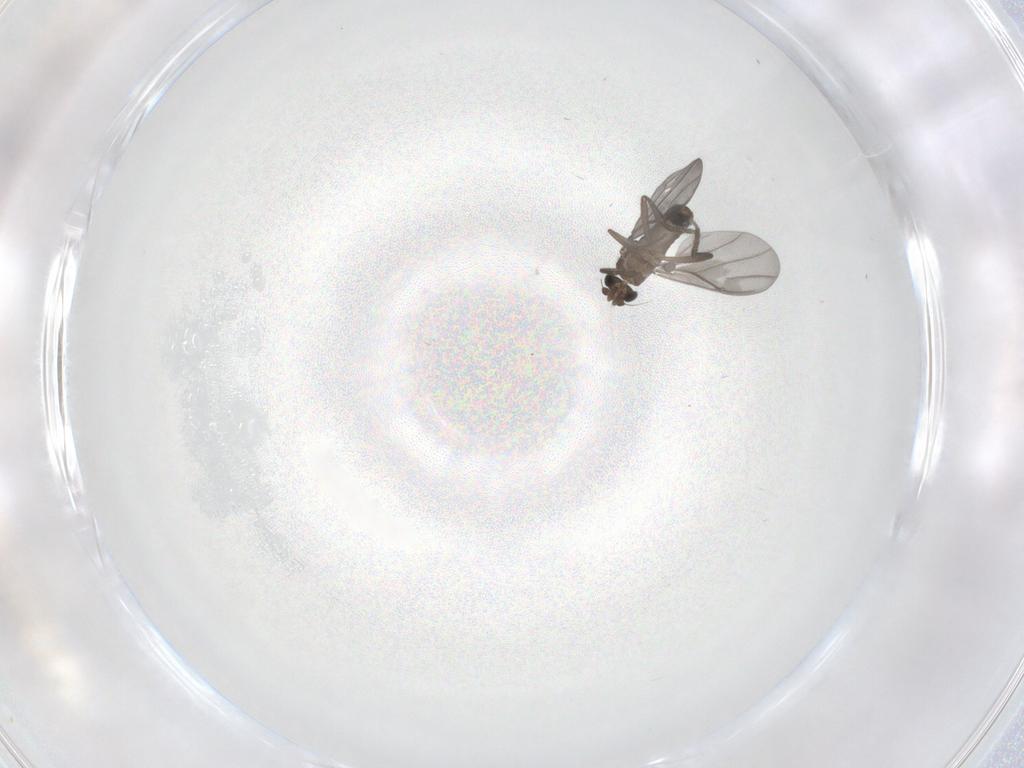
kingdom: Animalia
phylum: Arthropoda
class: Insecta
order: Diptera
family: Phoridae
